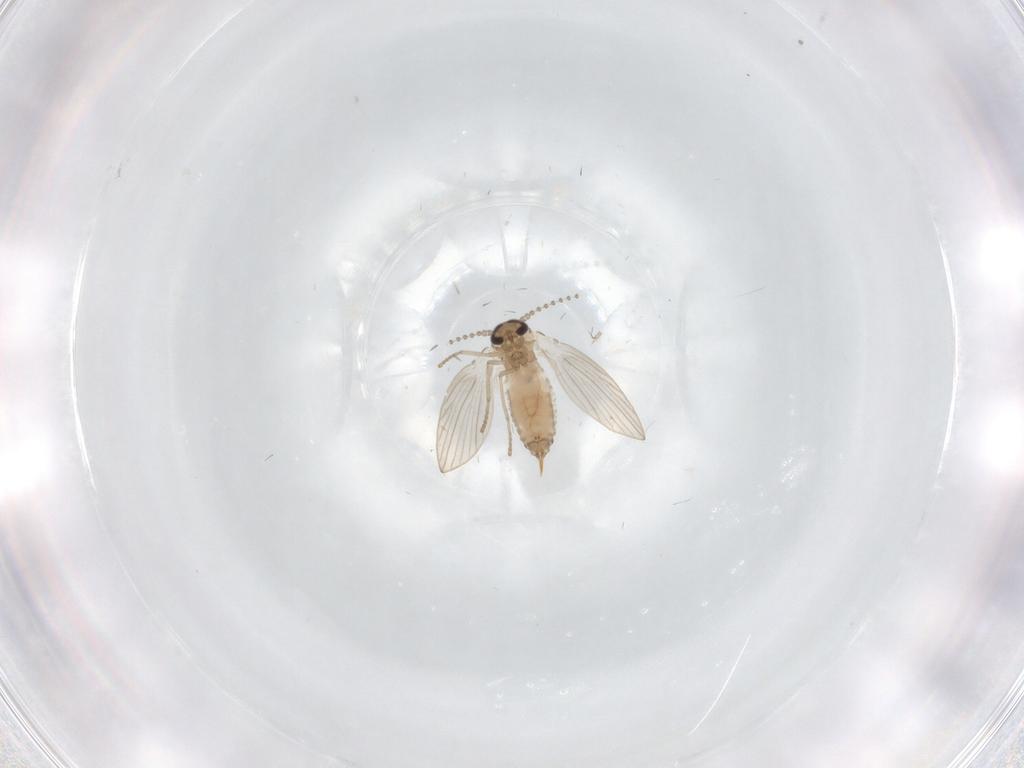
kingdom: Animalia
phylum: Arthropoda
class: Insecta
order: Diptera
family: Psychodidae
